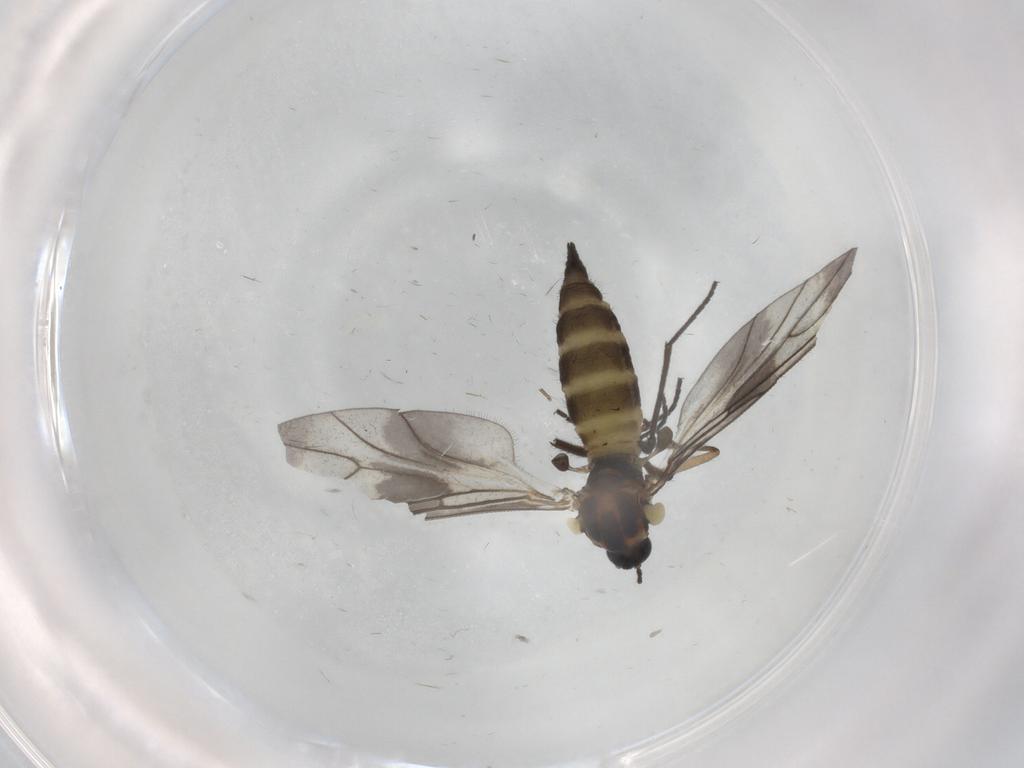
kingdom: Animalia
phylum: Arthropoda
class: Insecta
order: Diptera
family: Sciaridae
